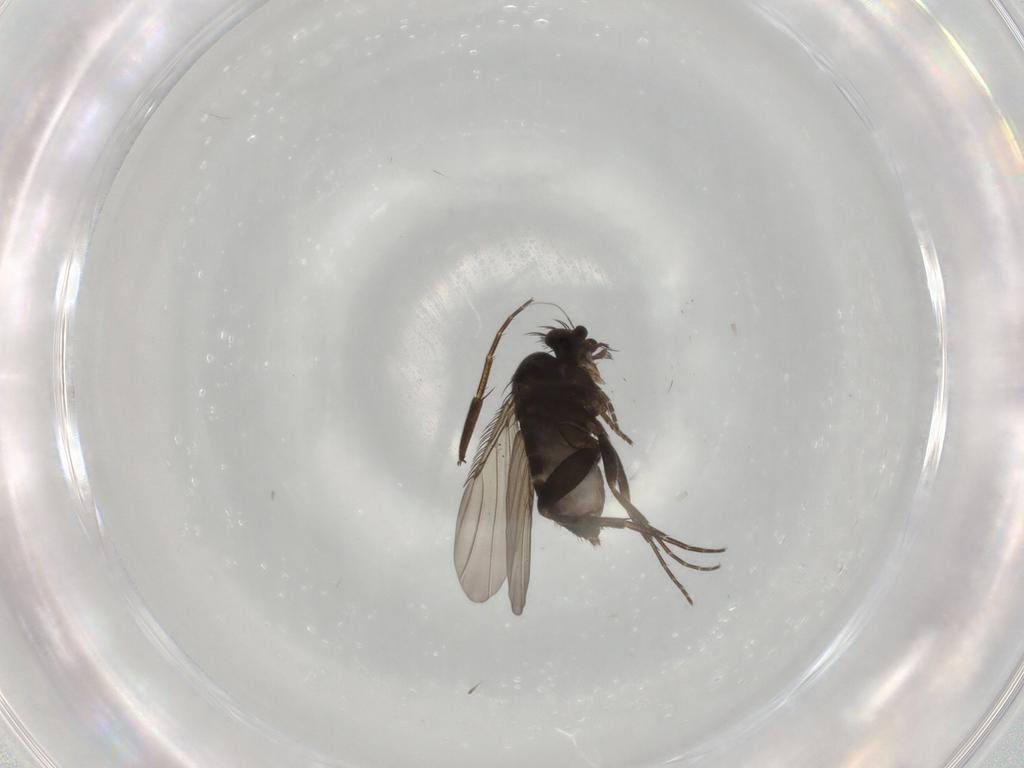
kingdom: Animalia
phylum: Arthropoda
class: Insecta
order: Diptera
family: Phoridae
